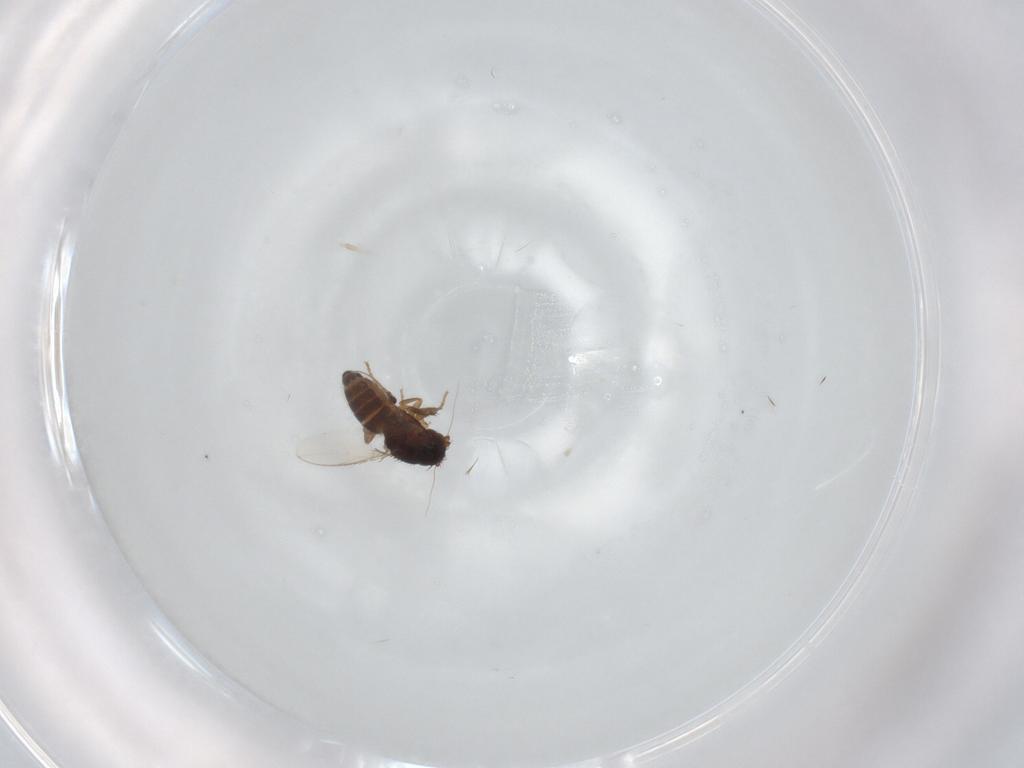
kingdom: Animalia
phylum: Arthropoda
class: Insecta
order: Diptera
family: Sphaeroceridae
